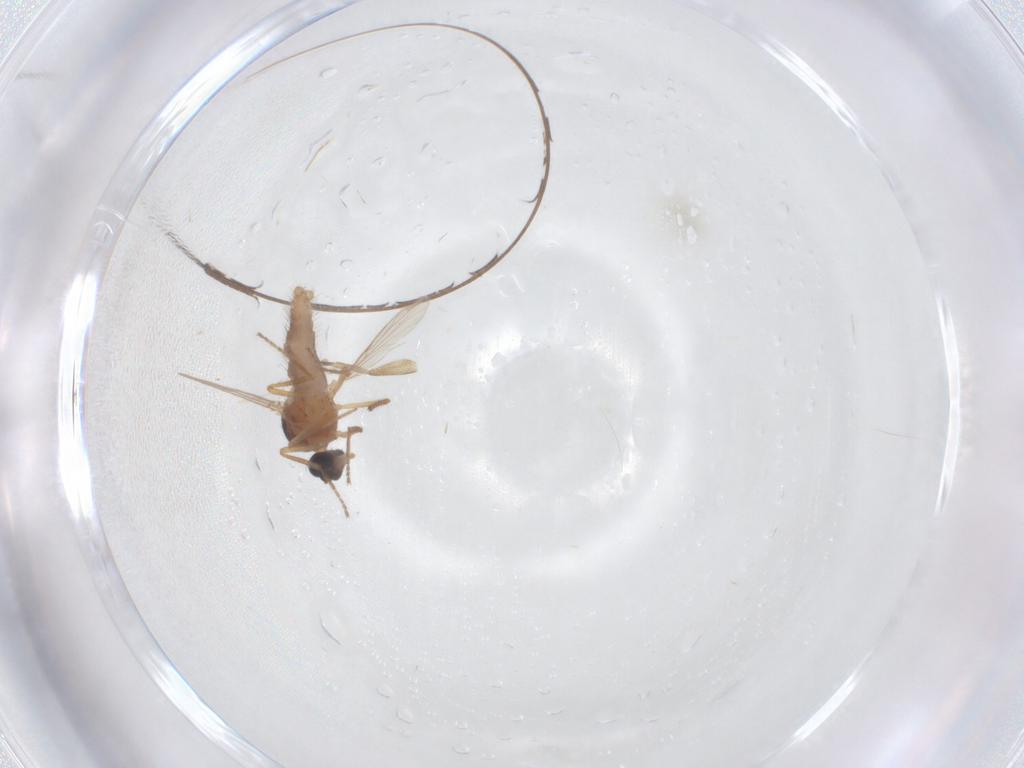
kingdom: Animalia
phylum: Arthropoda
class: Insecta
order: Diptera
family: Ceratopogonidae
